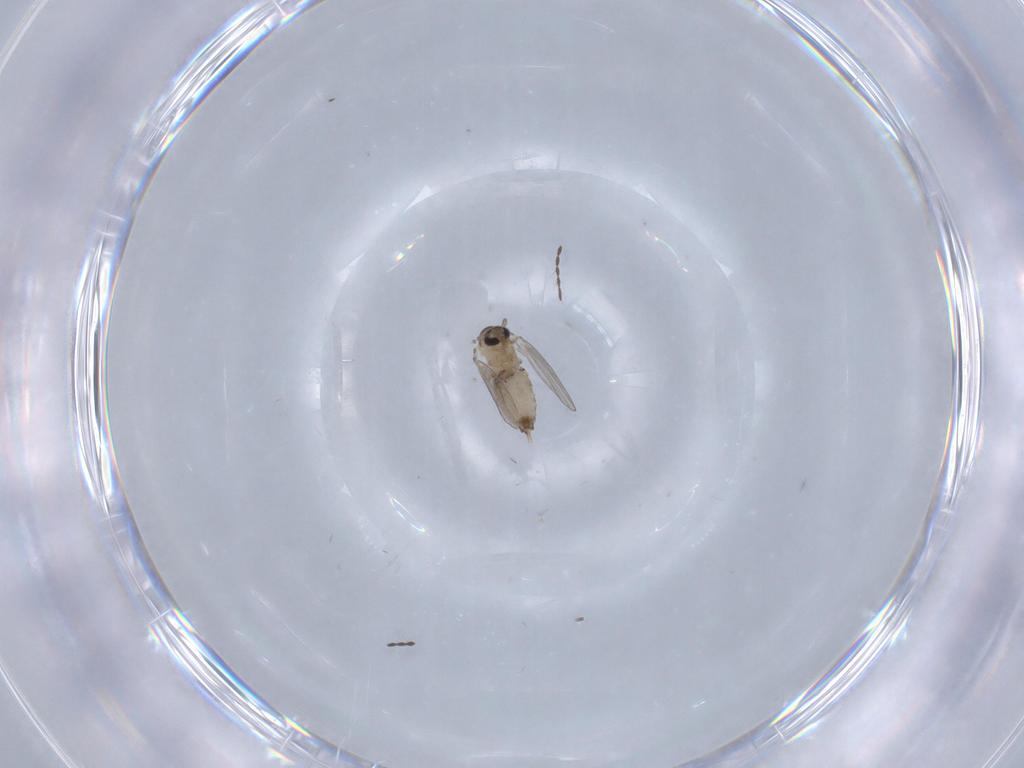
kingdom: Animalia
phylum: Arthropoda
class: Insecta
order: Diptera
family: Psychodidae
